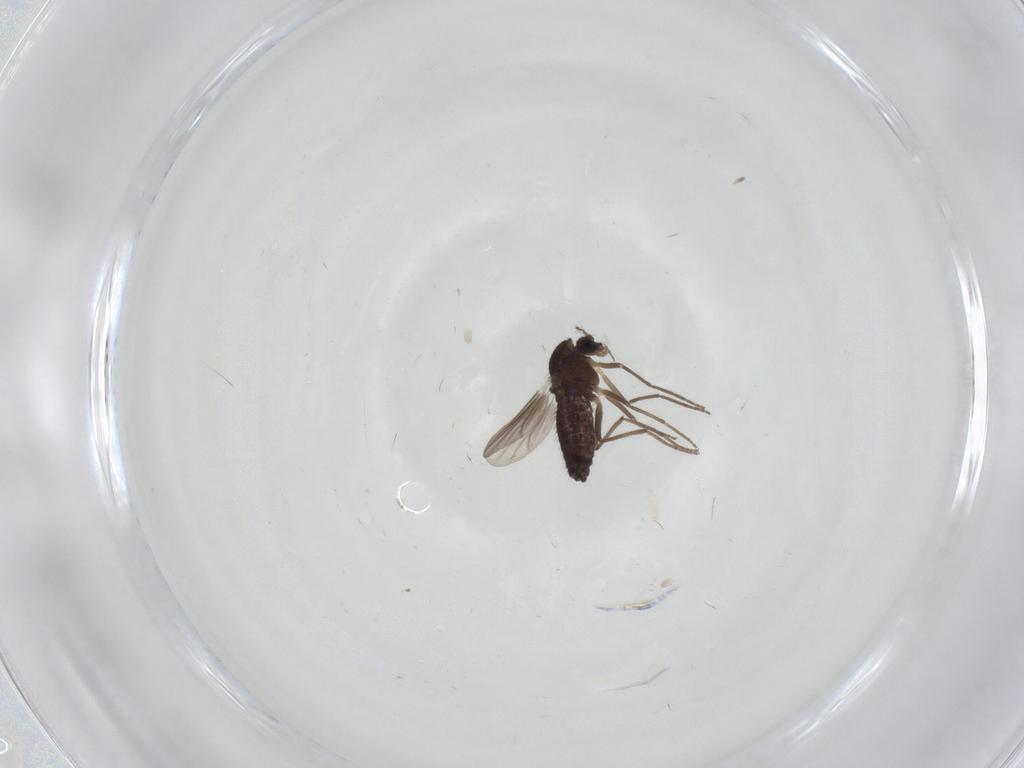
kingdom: Animalia
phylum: Arthropoda
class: Insecta
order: Diptera
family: Chironomidae
